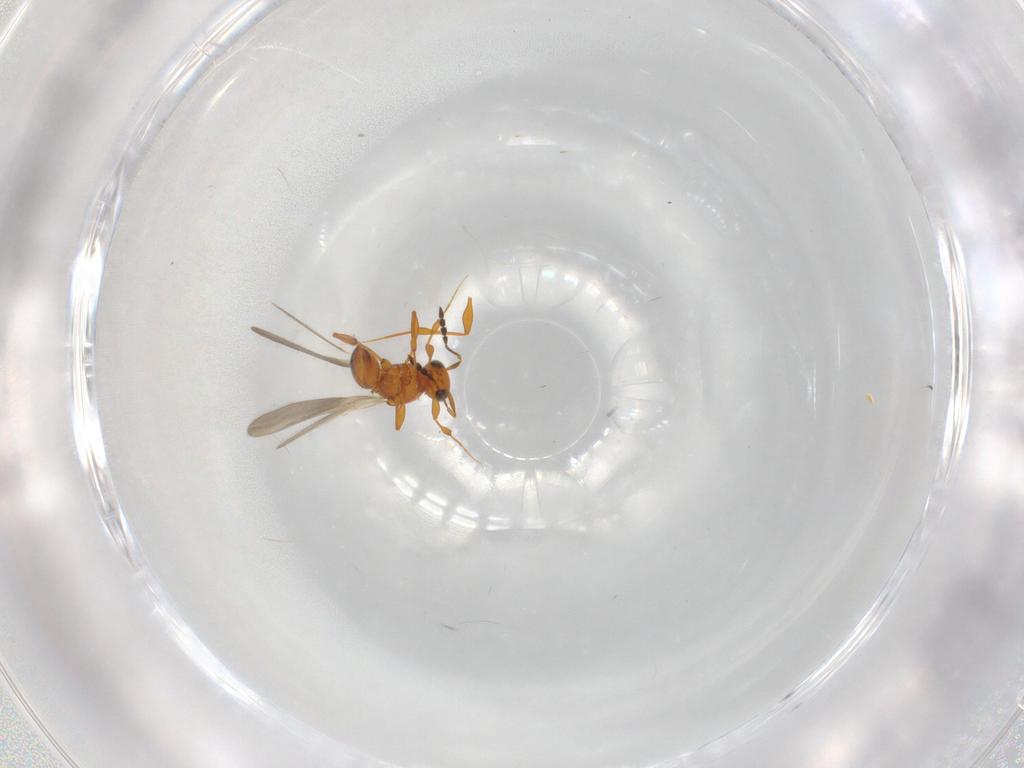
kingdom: Animalia
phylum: Arthropoda
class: Insecta
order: Hymenoptera
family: Platygastridae
